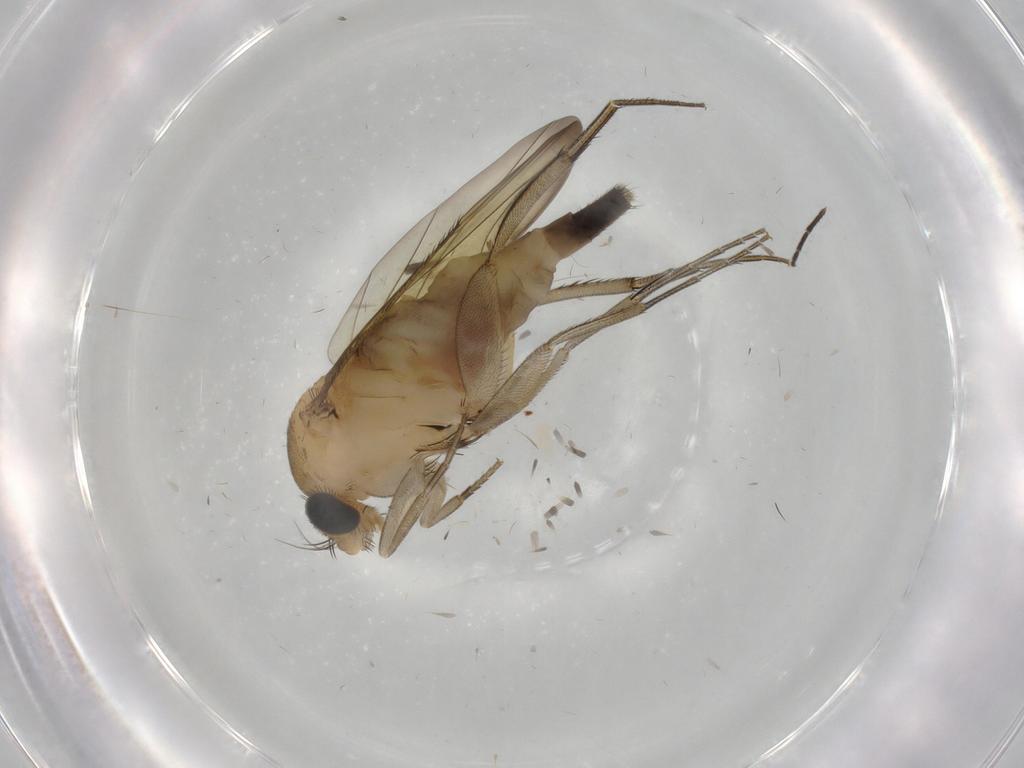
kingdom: Animalia
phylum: Arthropoda
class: Insecta
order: Diptera
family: Phoridae
